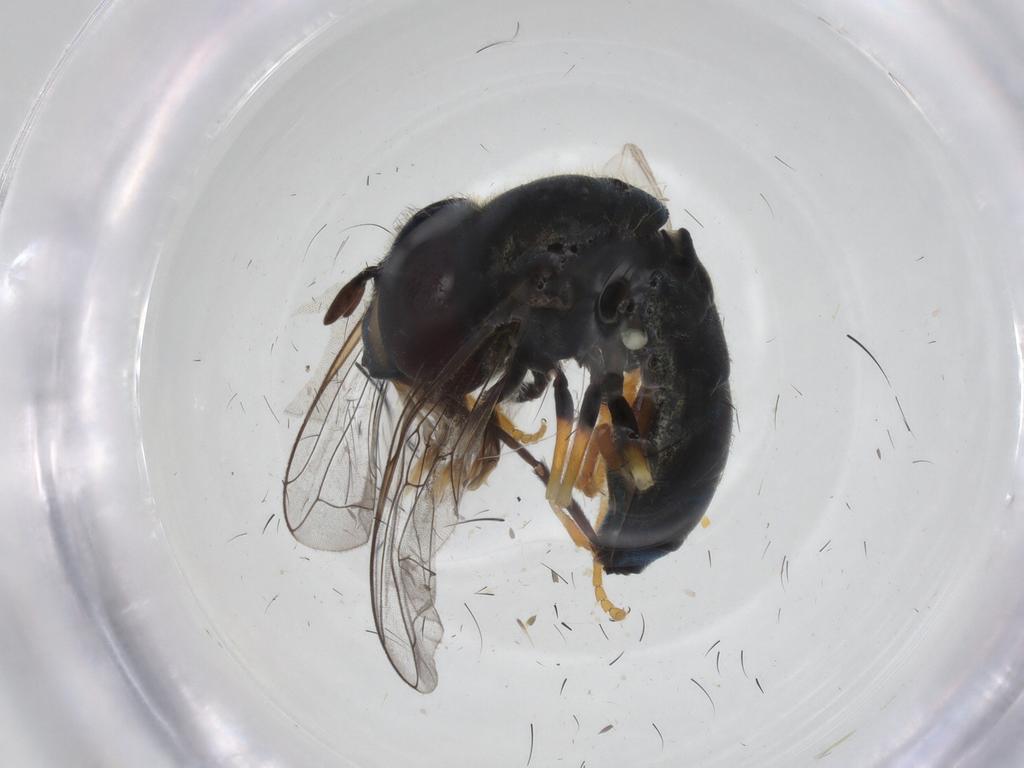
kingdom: Animalia
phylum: Arthropoda
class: Insecta
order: Diptera
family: Syrphidae
